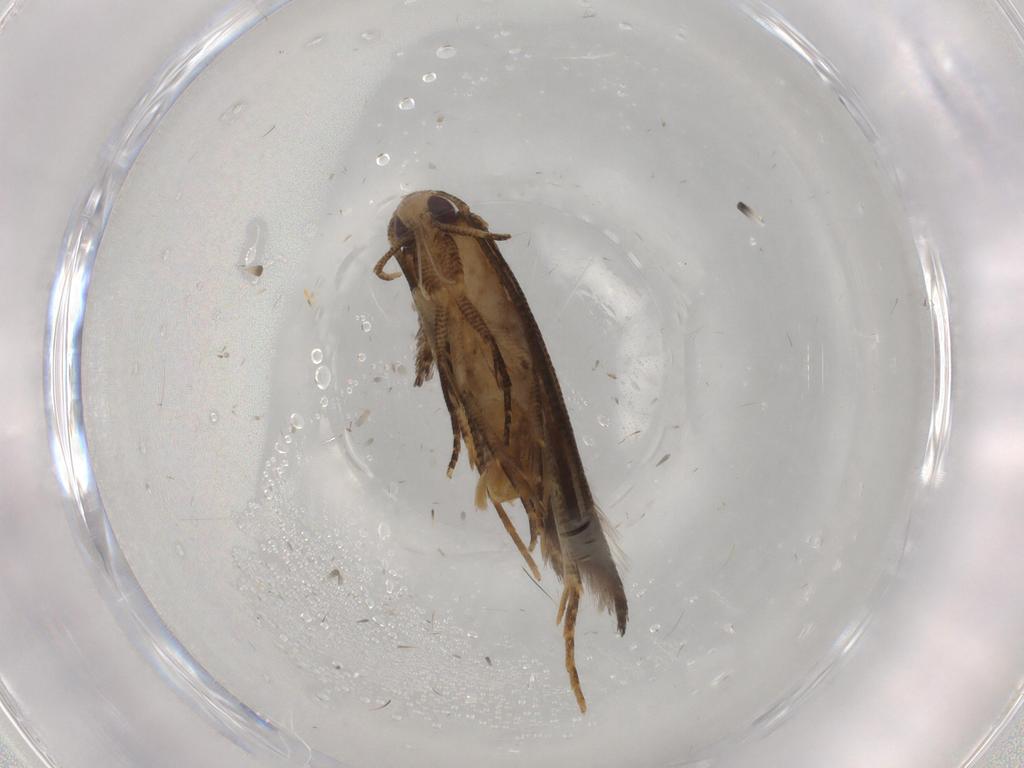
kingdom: Animalia
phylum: Arthropoda
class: Insecta
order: Lepidoptera
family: Cosmopterigidae
